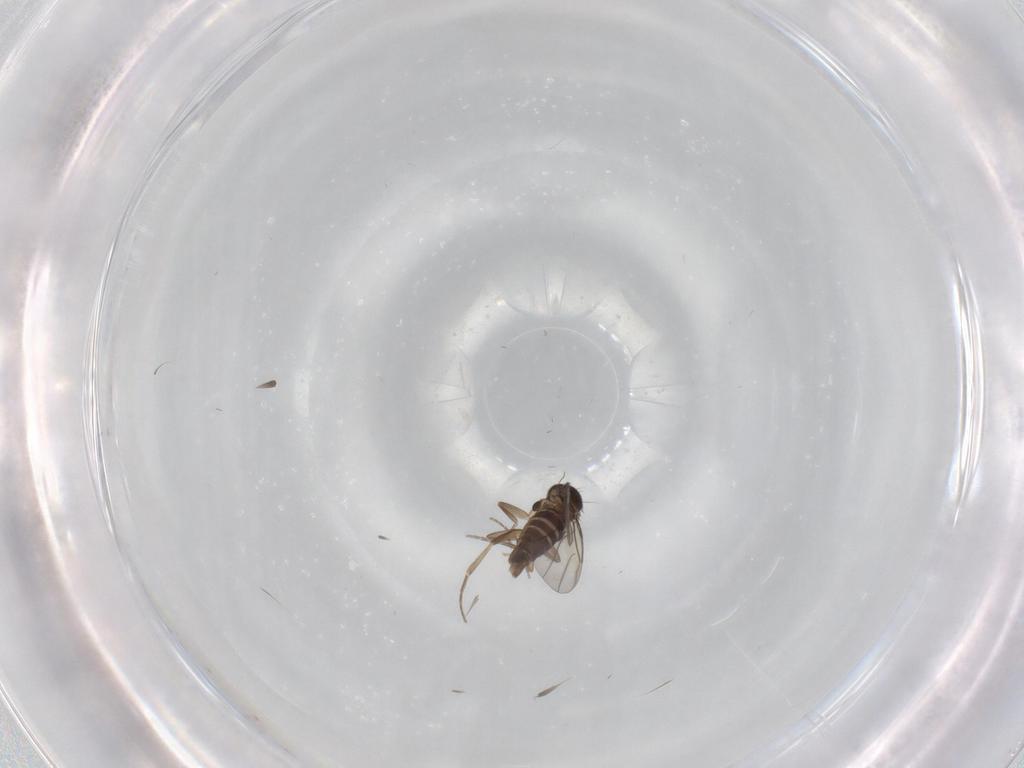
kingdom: Animalia
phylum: Arthropoda
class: Insecta
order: Diptera
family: Phoridae
